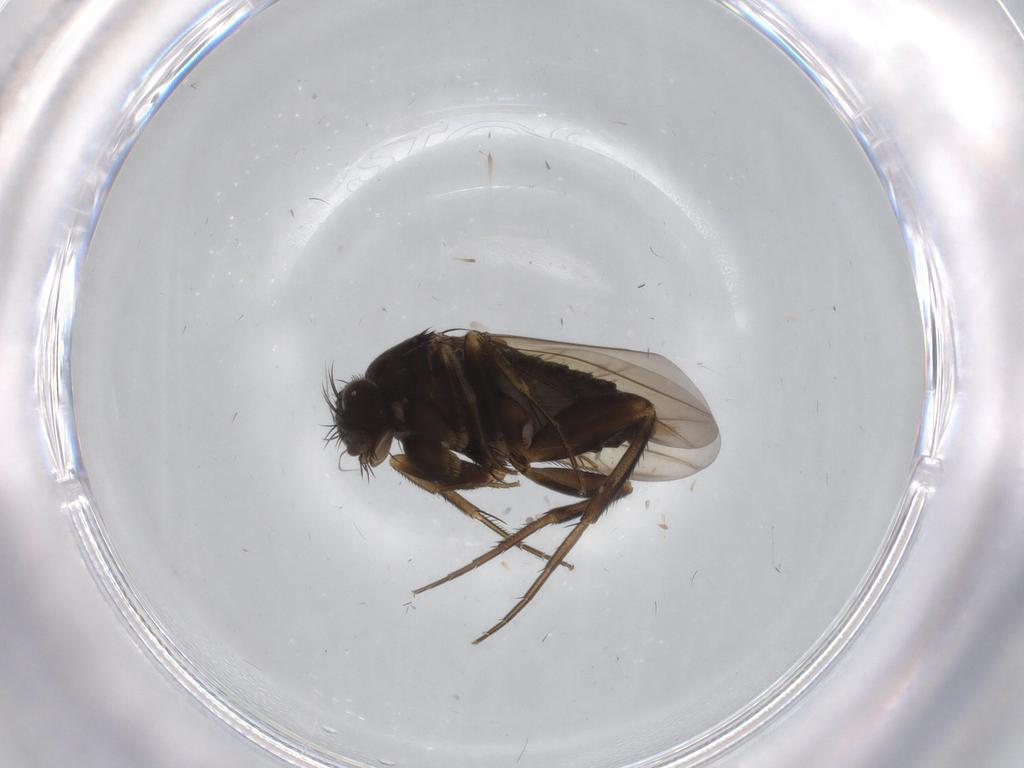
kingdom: Animalia
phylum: Arthropoda
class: Insecta
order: Diptera
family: Phoridae
